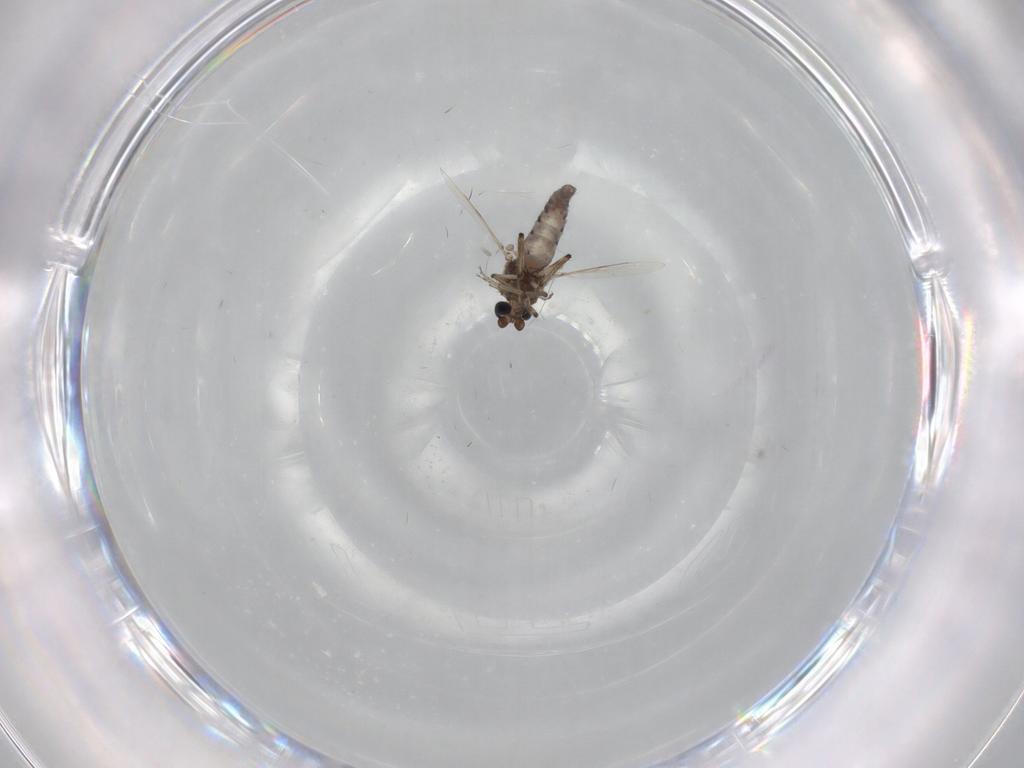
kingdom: Animalia
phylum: Arthropoda
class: Insecta
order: Diptera
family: Ceratopogonidae
